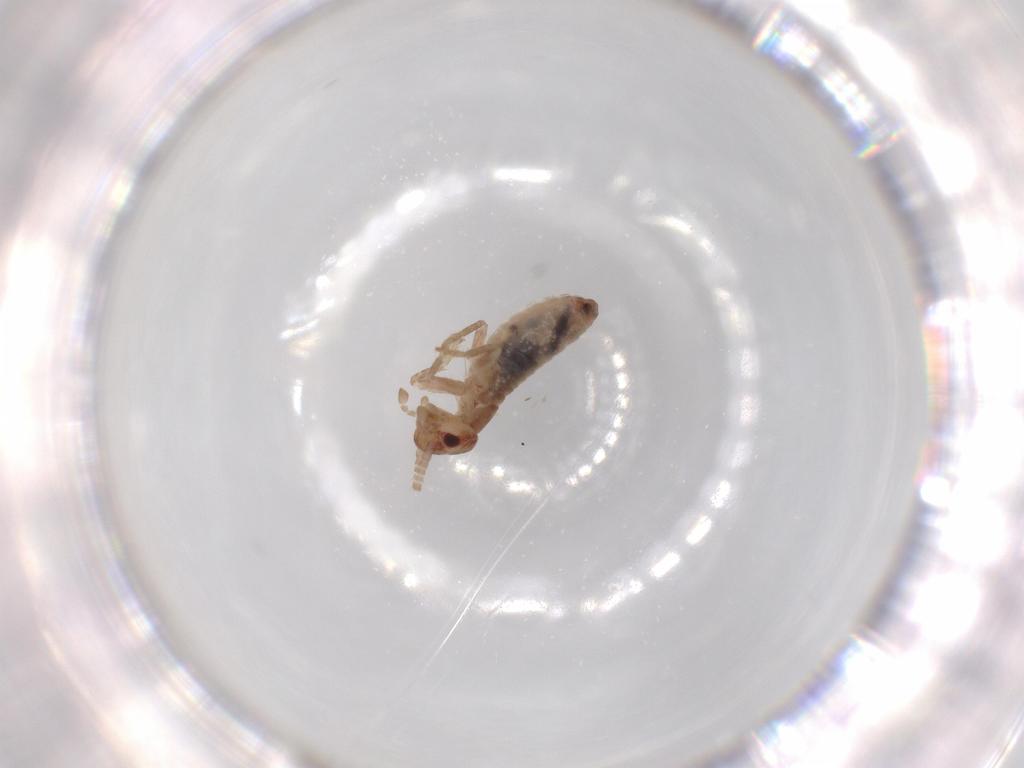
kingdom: Animalia
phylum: Arthropoda
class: Insecta
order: Orthoptera
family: Mogoplistidae
